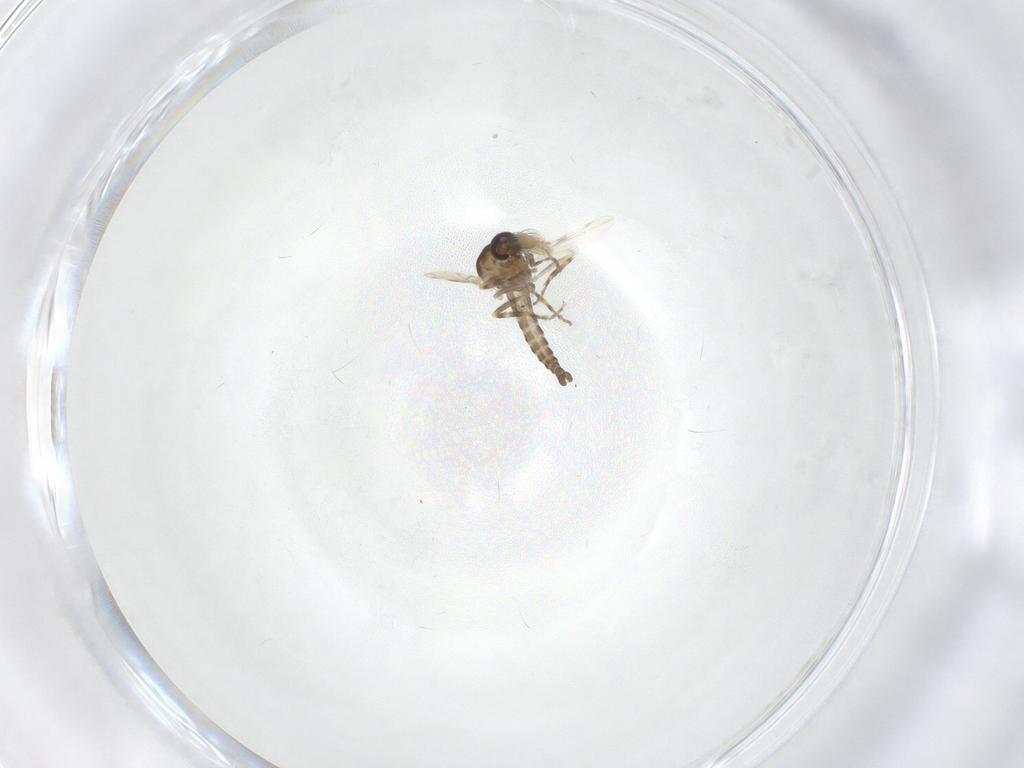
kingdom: Animalia
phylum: Arthropoda
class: Insecta
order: Diptera
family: Ceratopogonidae
